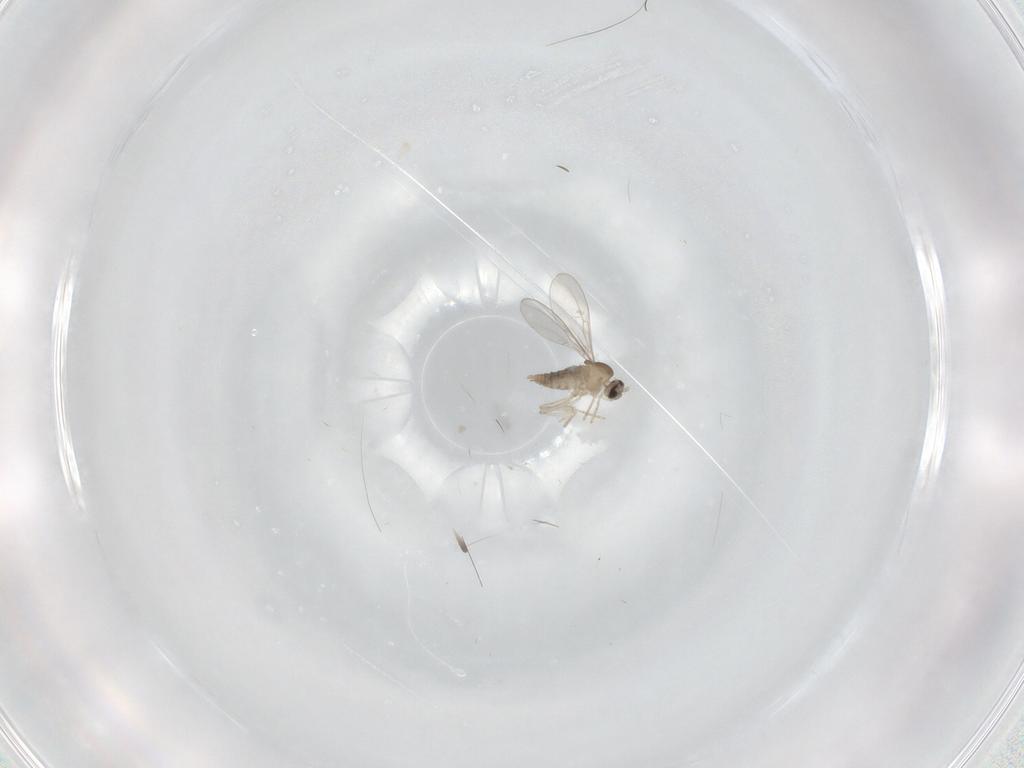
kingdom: Animalia
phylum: Arthropoda
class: Insecta
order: Diptera
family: Cecidomyiidae
